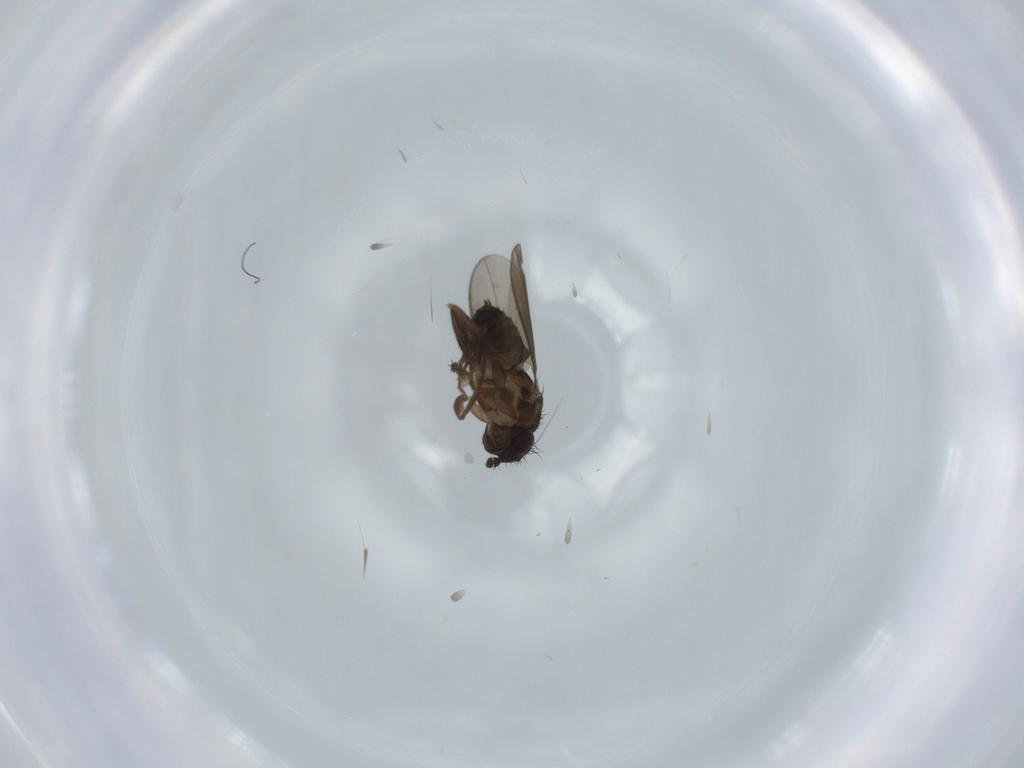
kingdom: Animalia
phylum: Arthropoda
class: Insecta
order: Diptera
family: Sphaeroceridae
